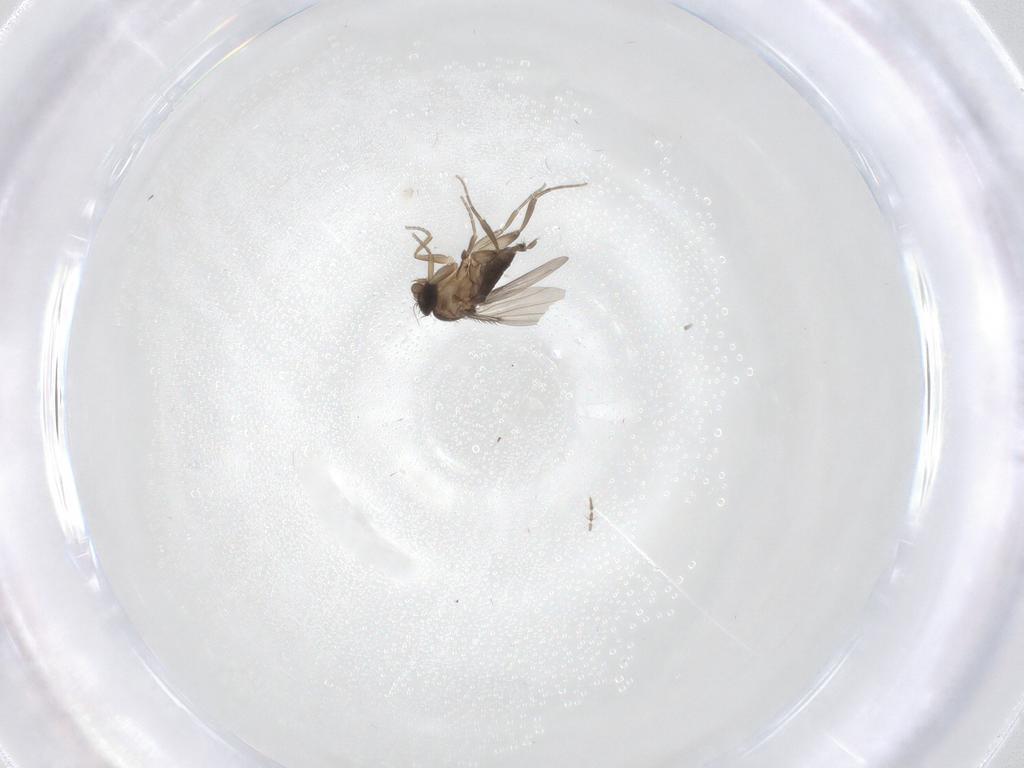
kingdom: Animalia
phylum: Arthropoda
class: Insecta
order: Diptera
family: Phoridae
